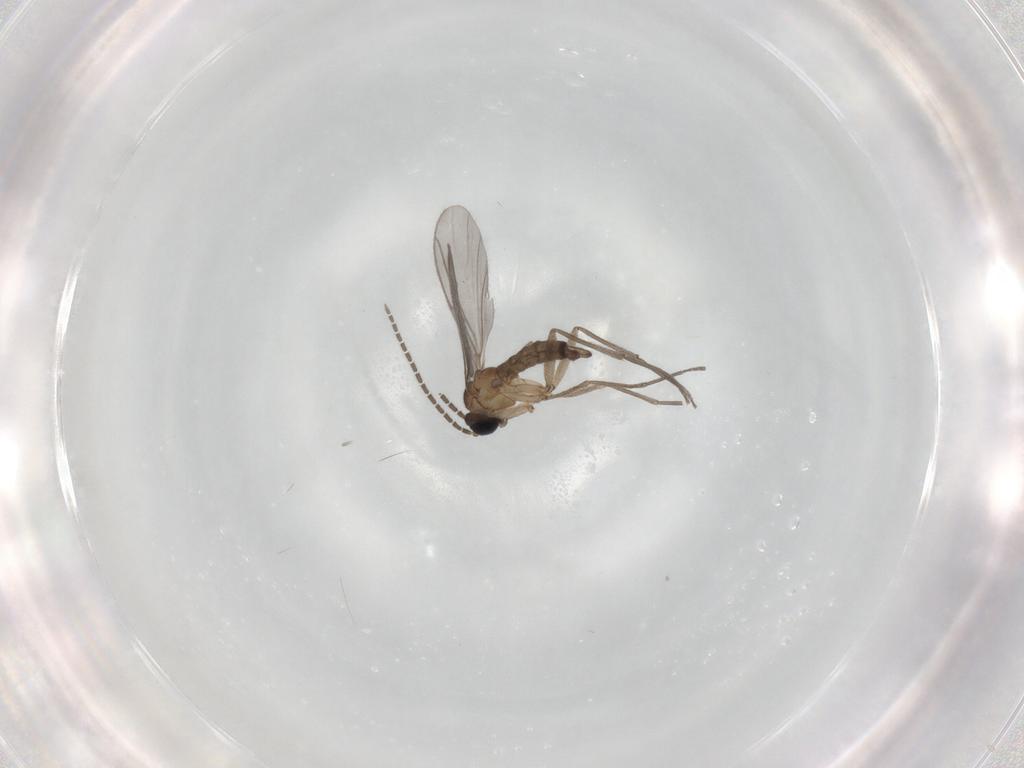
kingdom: Animalia
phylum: Arthropoda
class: Insecta
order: Diptera
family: Cecidomyiidae
